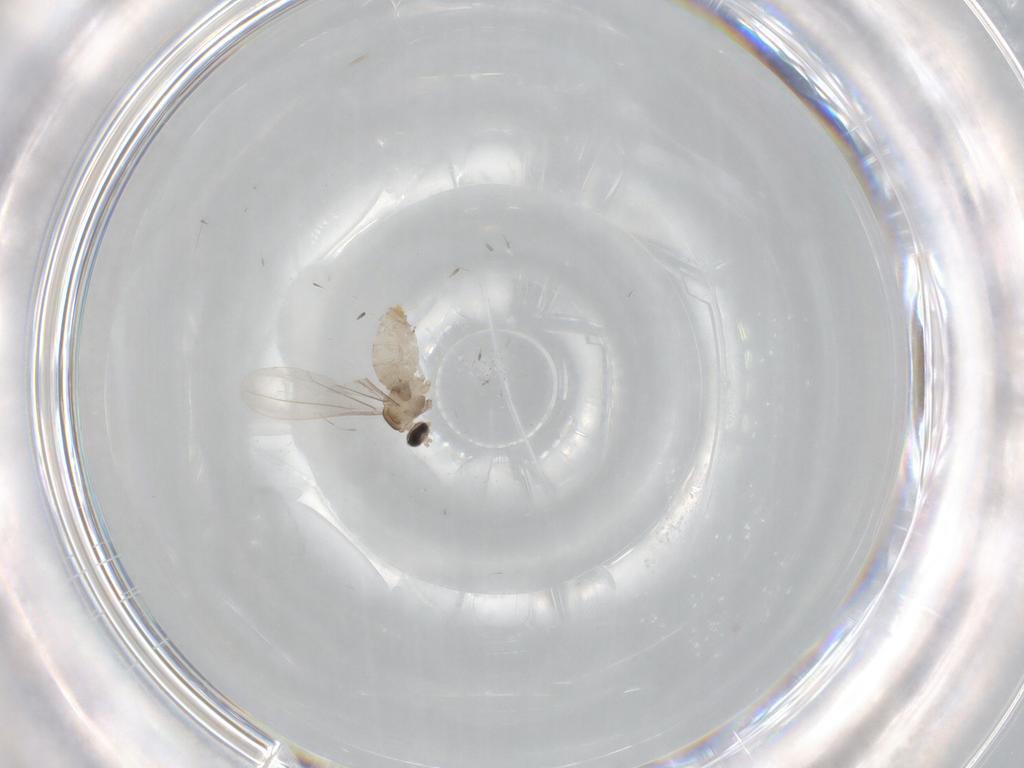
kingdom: Animalia
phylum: Arthropoda
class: Insecta
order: Diptera
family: Cecidomyiidae
